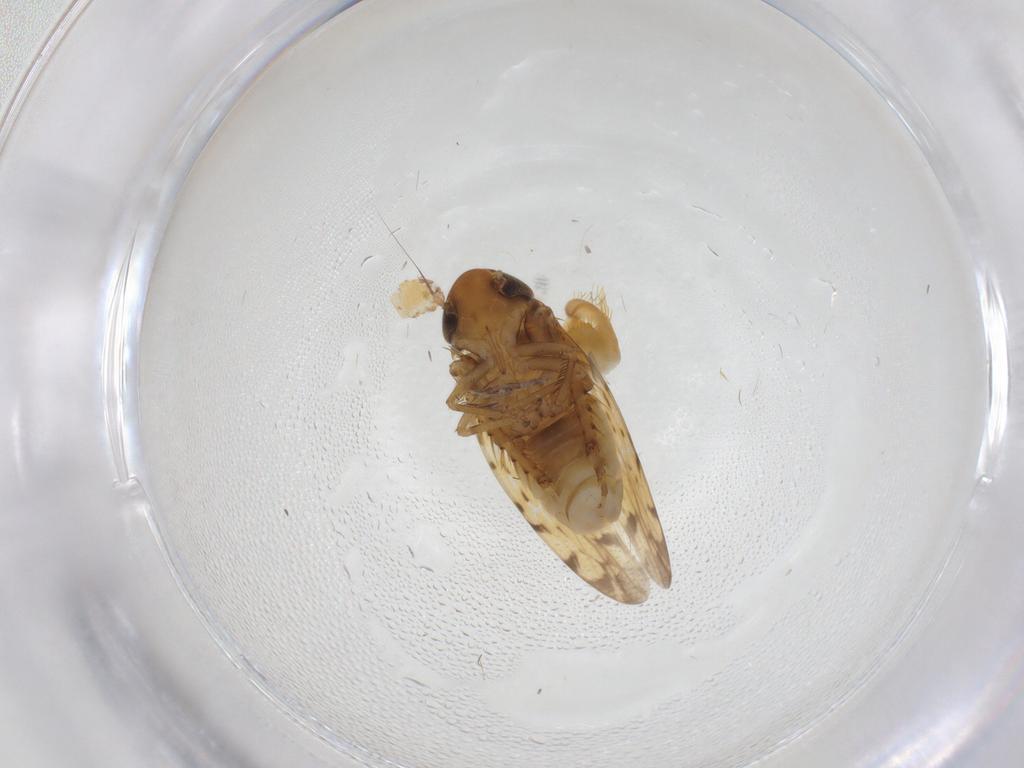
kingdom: Animalia
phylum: Arthropoda
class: Insecta
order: Hemiptera
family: Cicadellidae
